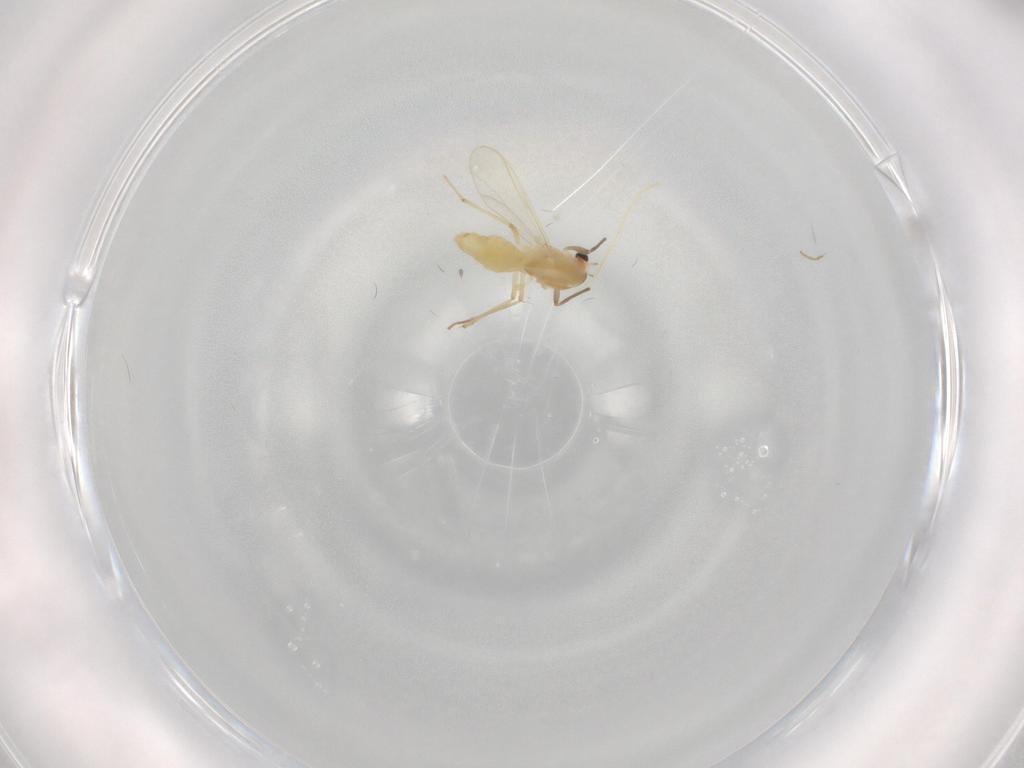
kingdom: Animalia
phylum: Arthropoda
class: Insecta
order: Diptera
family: Chironomidae
